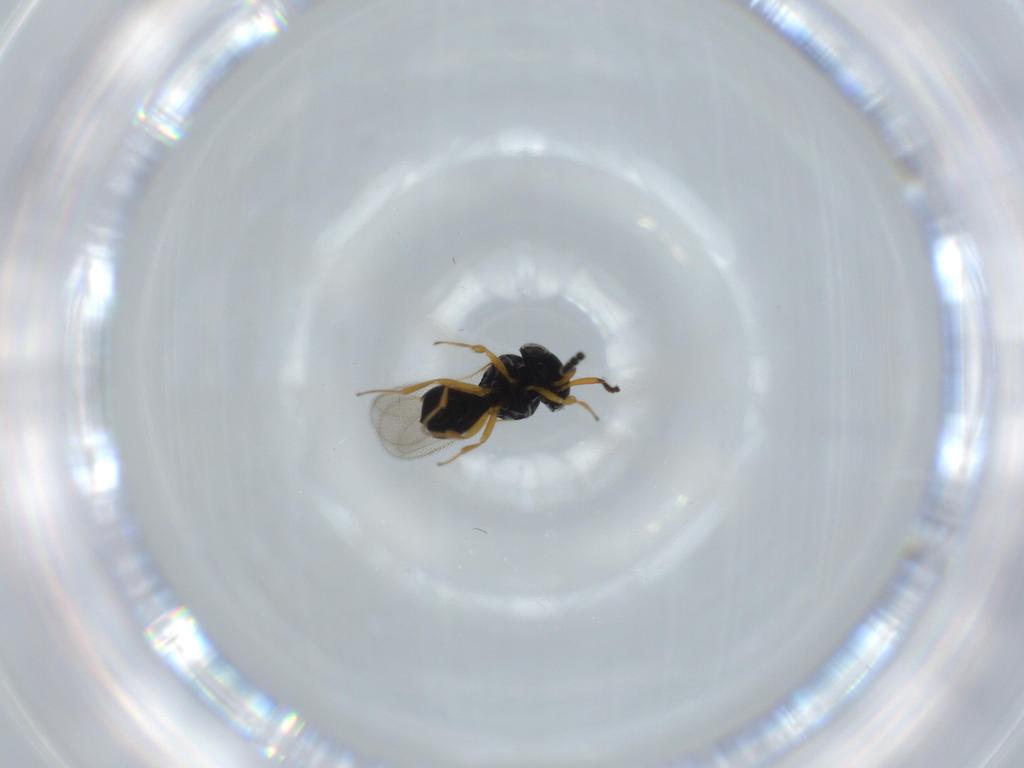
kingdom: Animalia
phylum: Arthropoda
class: Insecta
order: Hymenoptera
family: Scelionidae
